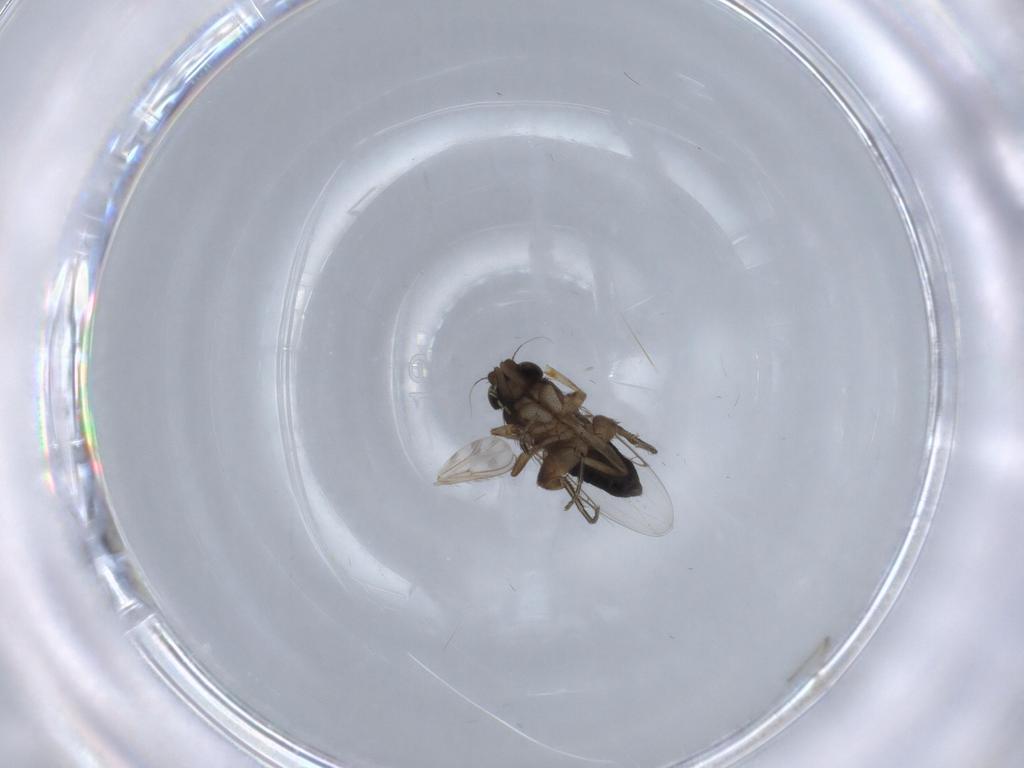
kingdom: Animalia
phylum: Arthropoda
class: Insecta
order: Diptera
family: Phoridae
